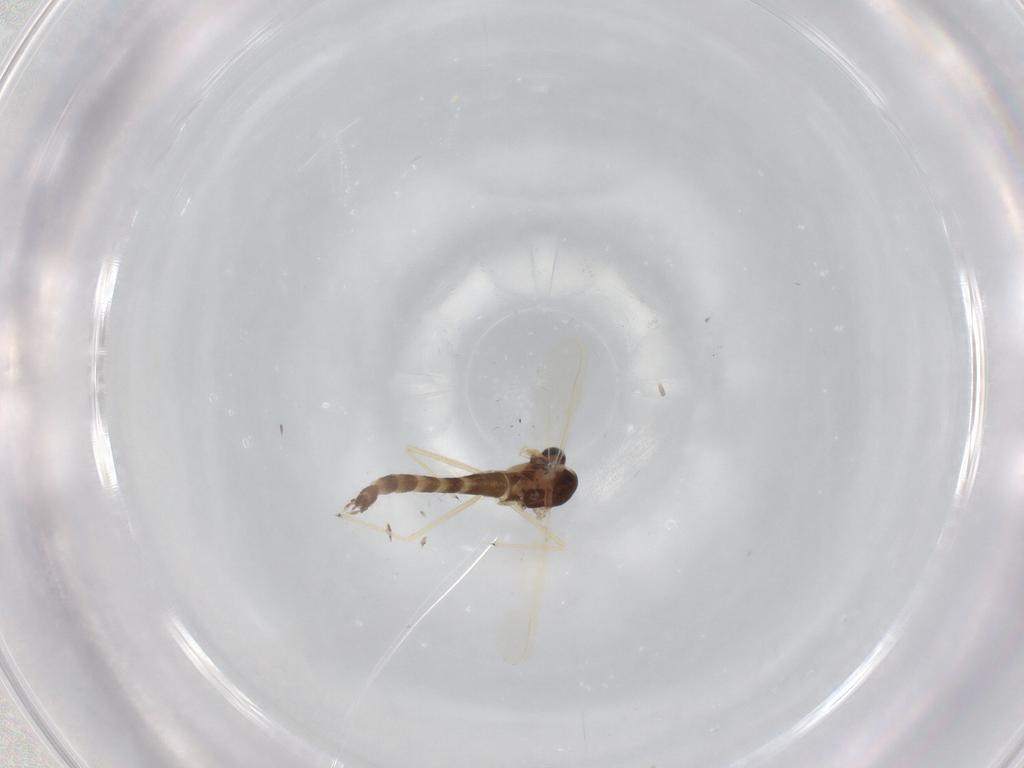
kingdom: Animalia
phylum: Arthropoda
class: Insecta
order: Diptera
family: Chironomidae
